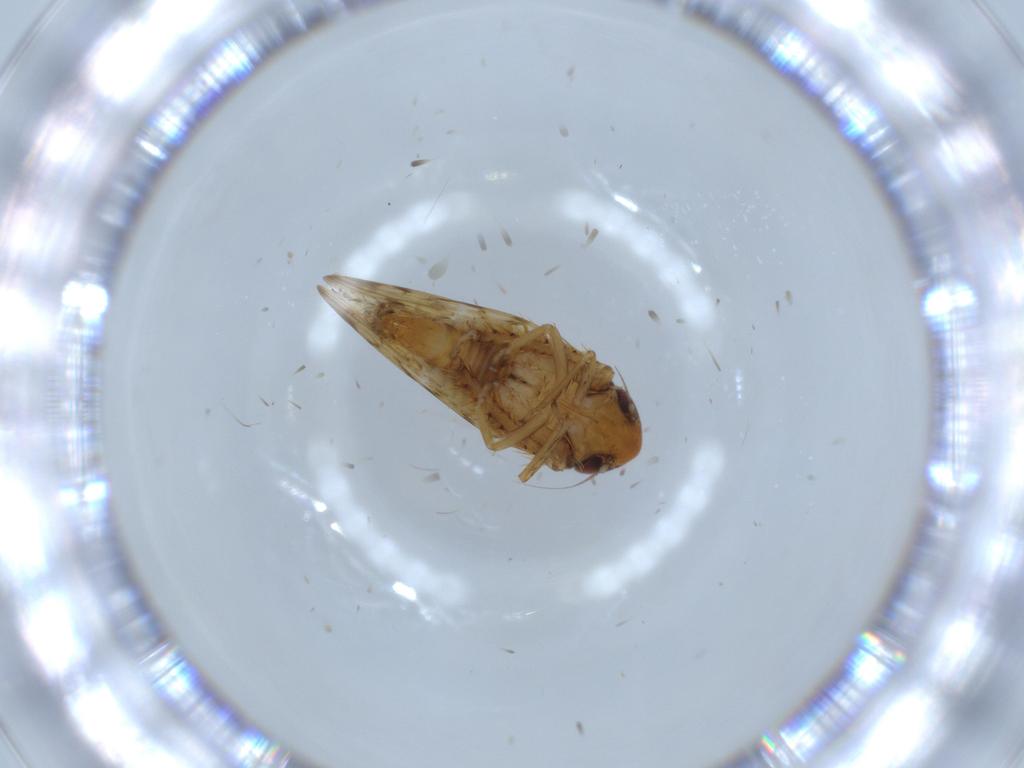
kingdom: Animalia
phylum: Arthropoda
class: Insecta
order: Hemiptera
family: Cicadellidae
